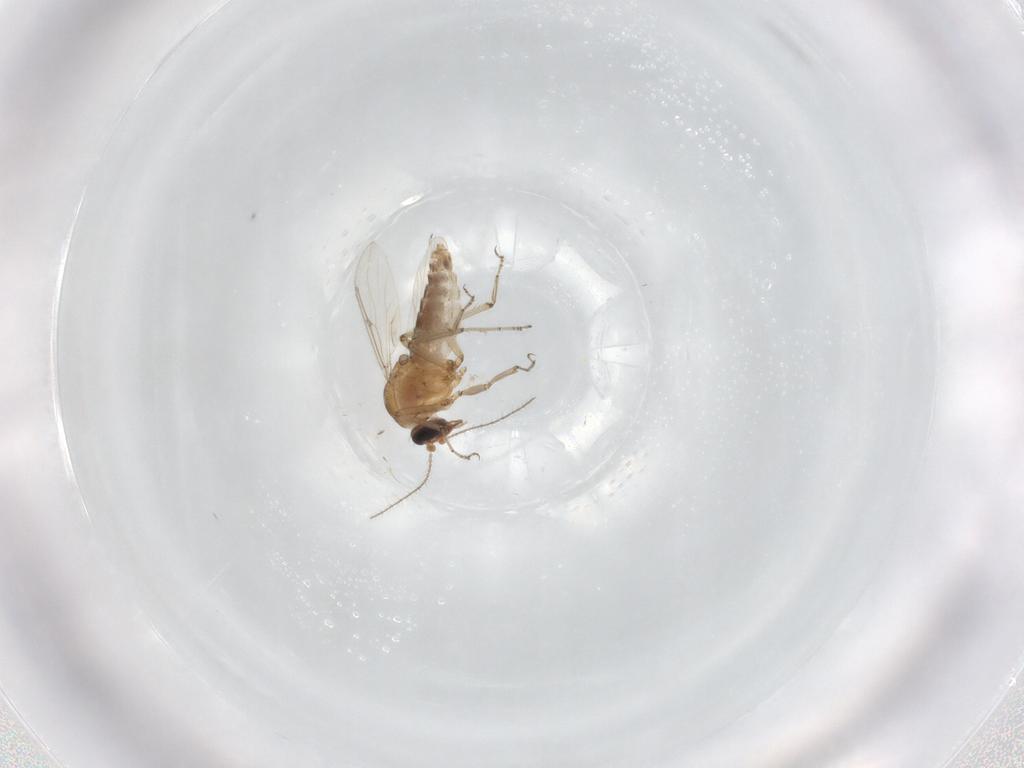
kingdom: Animalia
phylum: Arthropoda
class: Insecta
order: Diptera
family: Ceratopogonidae
